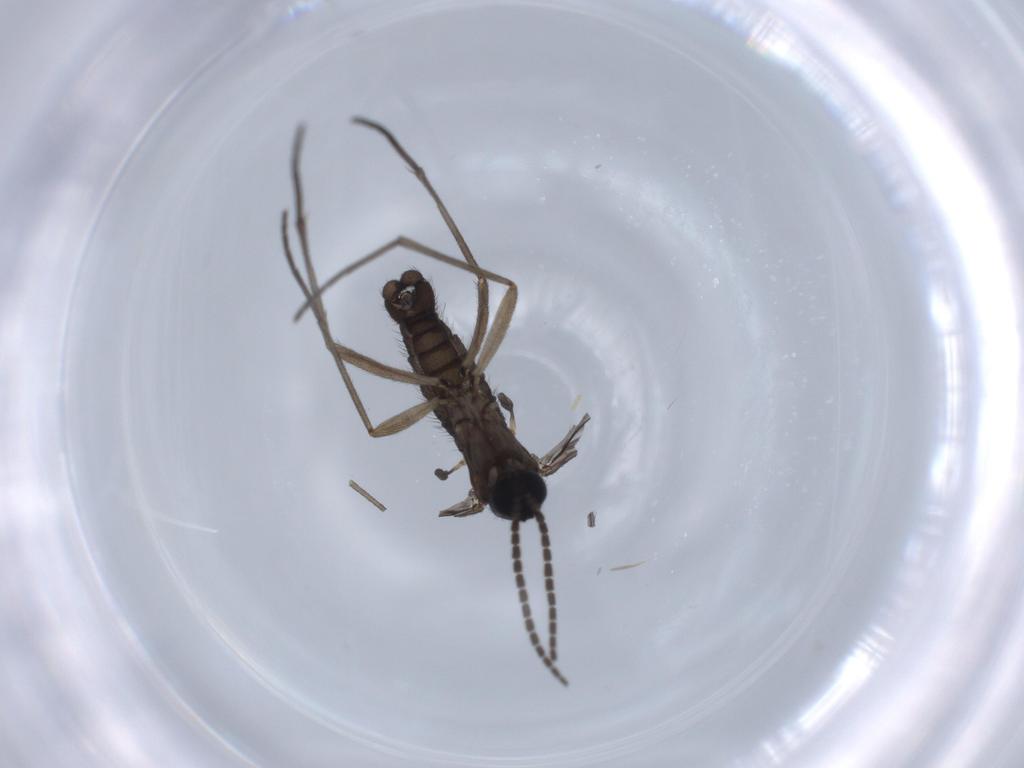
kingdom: Animalia
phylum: Arthropoda
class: Insecta
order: Diptera
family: Sciaridae
